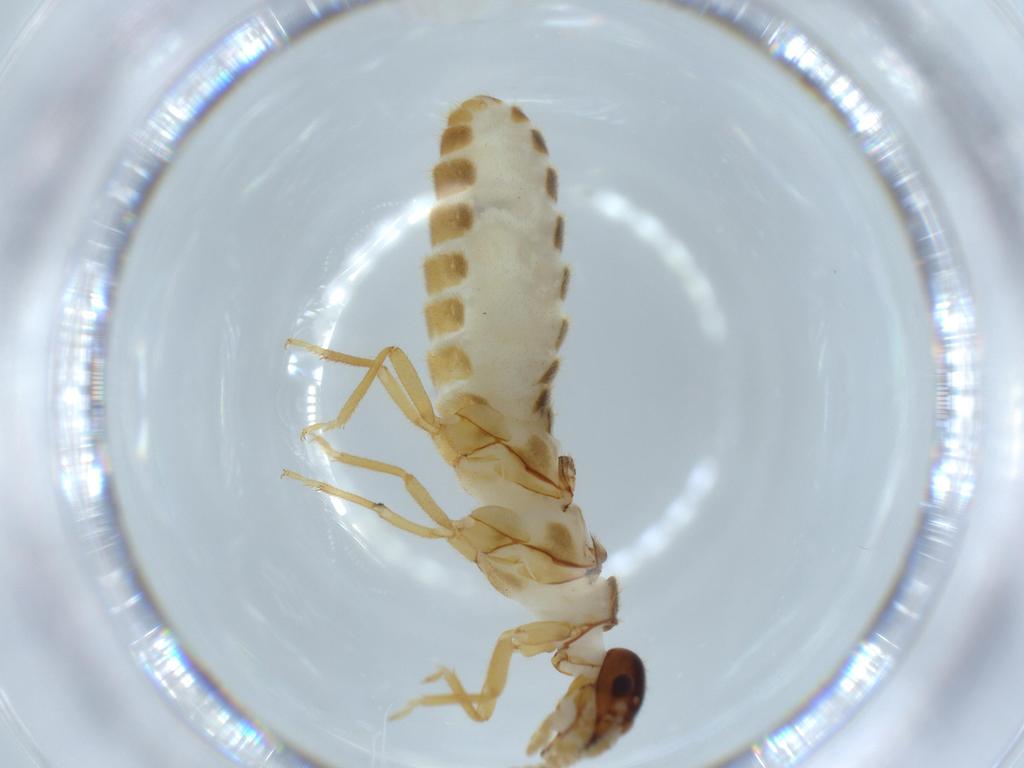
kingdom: Animalia
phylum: Arthropoda
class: Insecta
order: Blattodea
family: Termitidae
